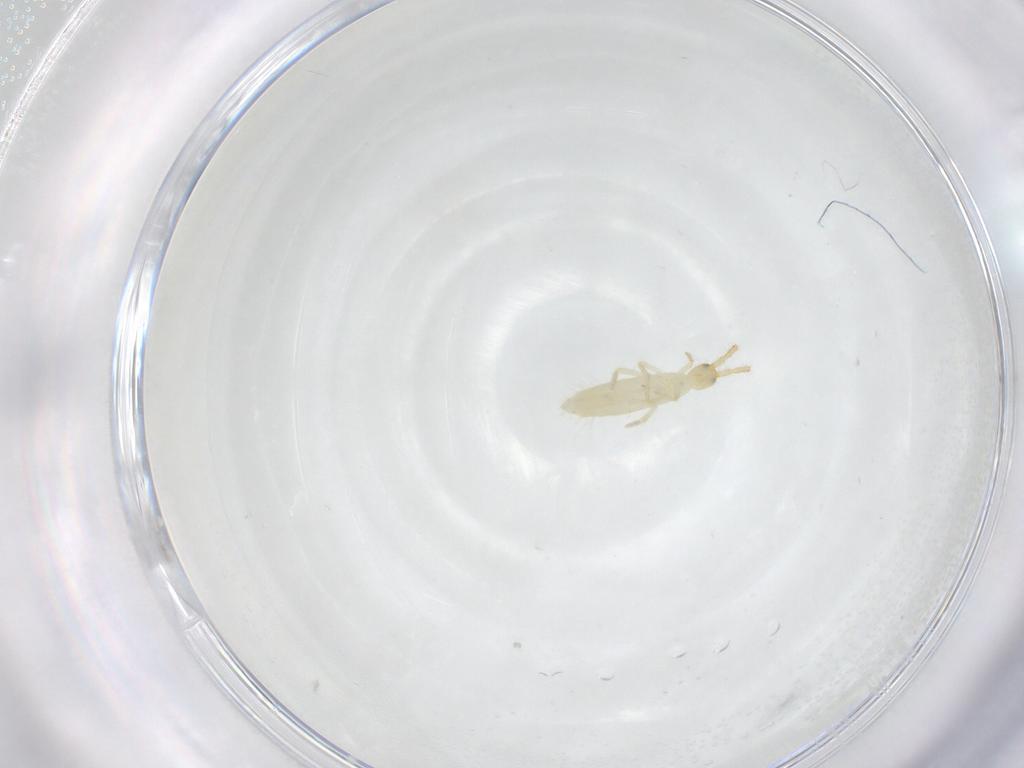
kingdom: Animalia
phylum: Arthropoda
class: Collembola
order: Entomobryomorpha
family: Entomobryidae
